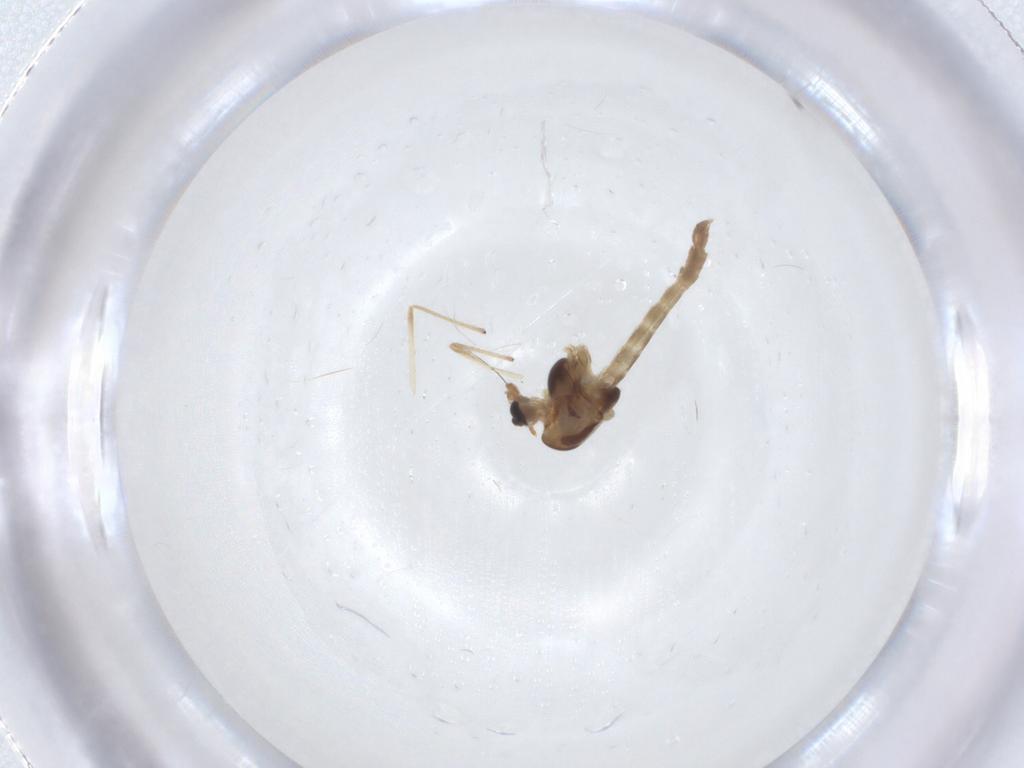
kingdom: Animalia
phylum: Arthropoda
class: Insecta
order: Diptera
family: Chironomidae
